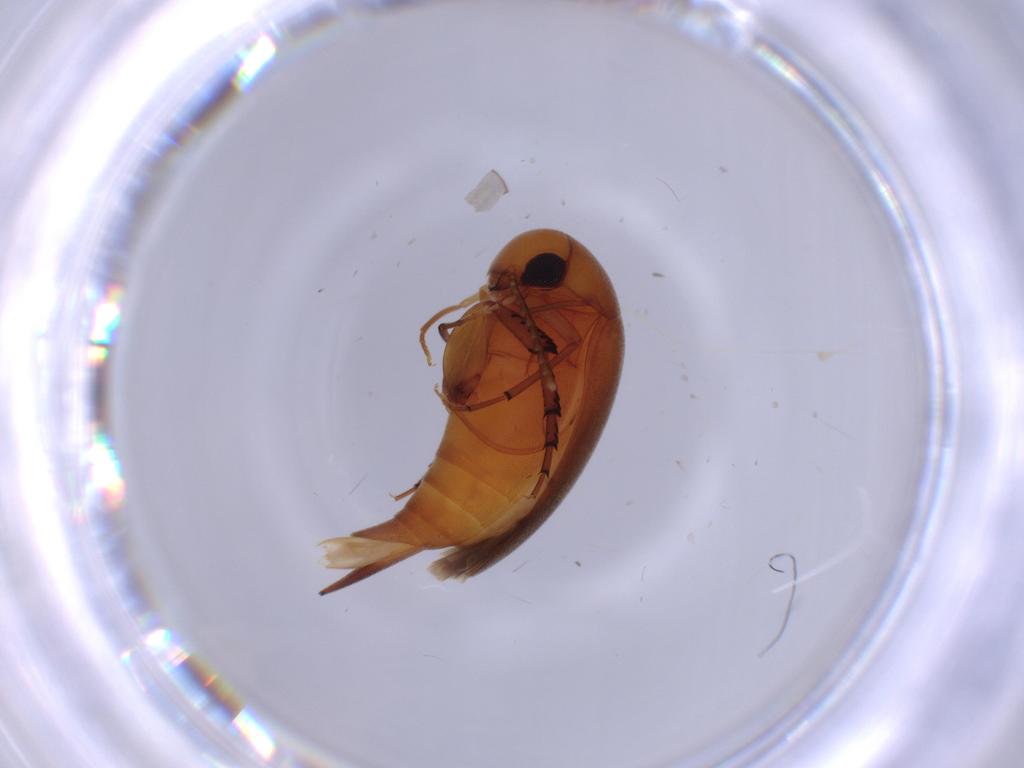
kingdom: Animalia
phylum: Arthropoda
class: Insecta
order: Coleoptera
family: Mordellidae
